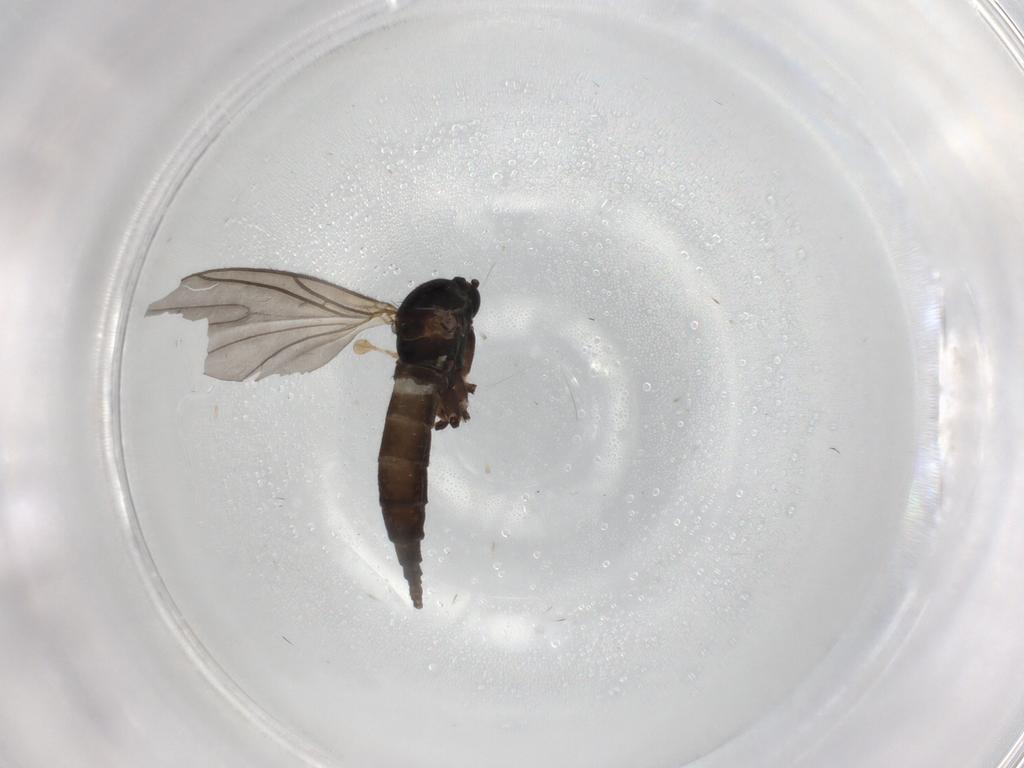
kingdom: Animalia
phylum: Arthropoda
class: Insecta
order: Diptera
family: Sciaridae
